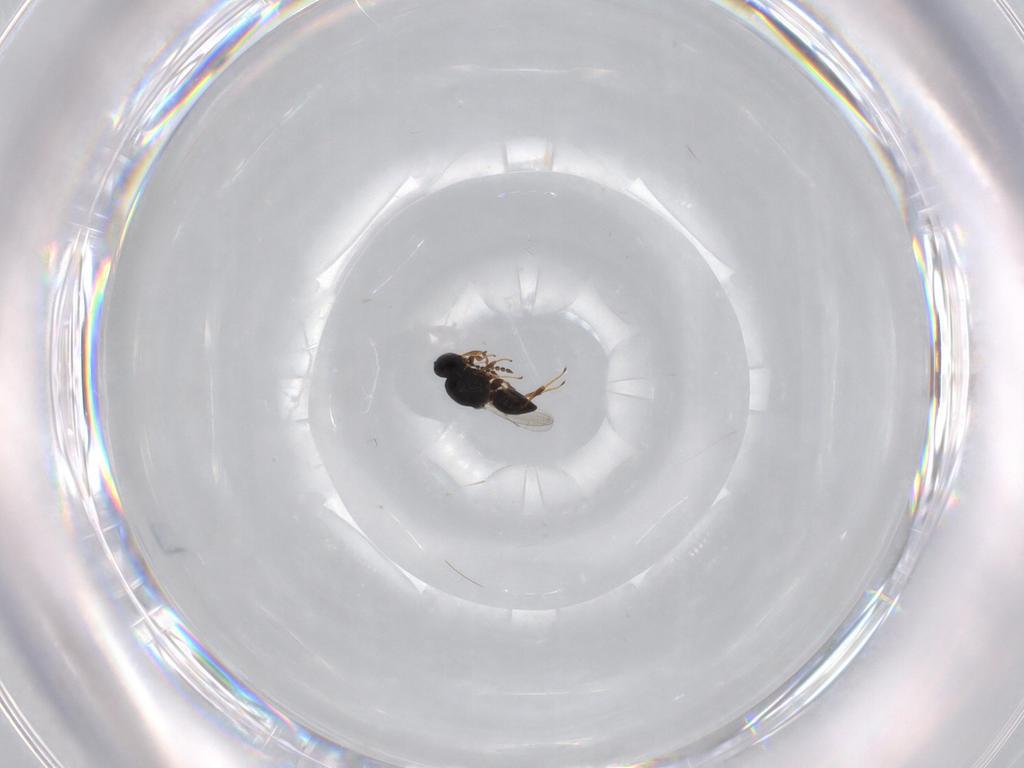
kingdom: Animalia
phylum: Arthropoda
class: Insecta
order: Hymenoptera
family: Platygastridae
